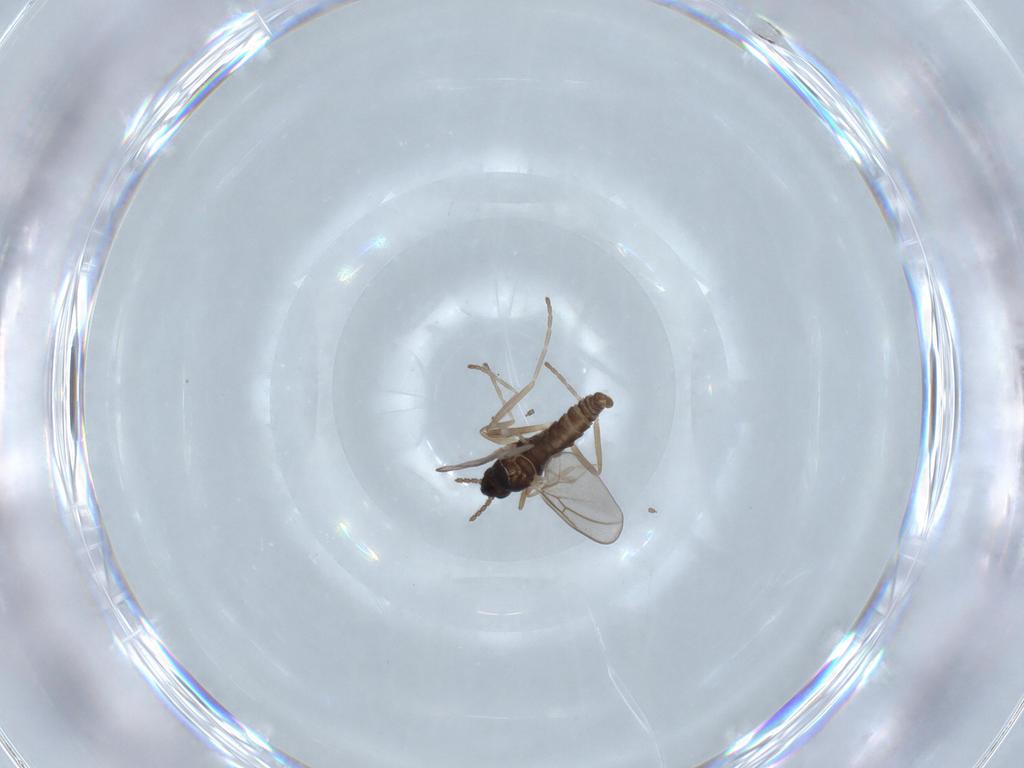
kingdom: Animalia
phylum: Arthropoda
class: Insecta
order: Diptera
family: Cecidomyiidae
